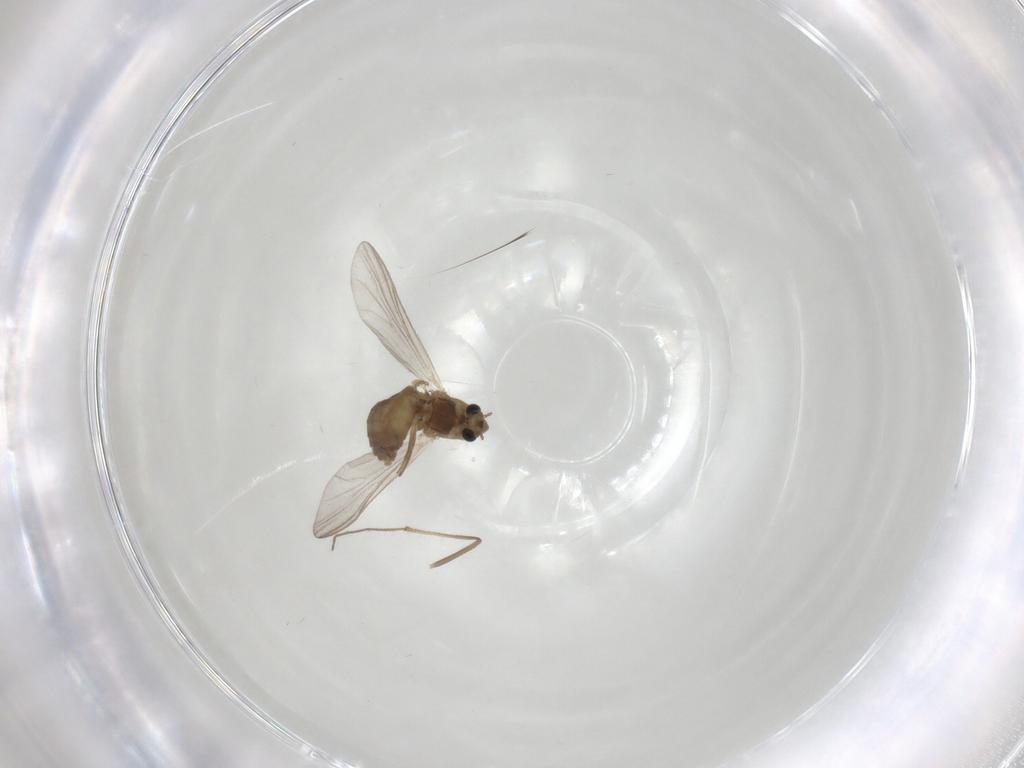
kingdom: Animalia
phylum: Arthropoda
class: Insecta
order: Diptera
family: Chironomidae
